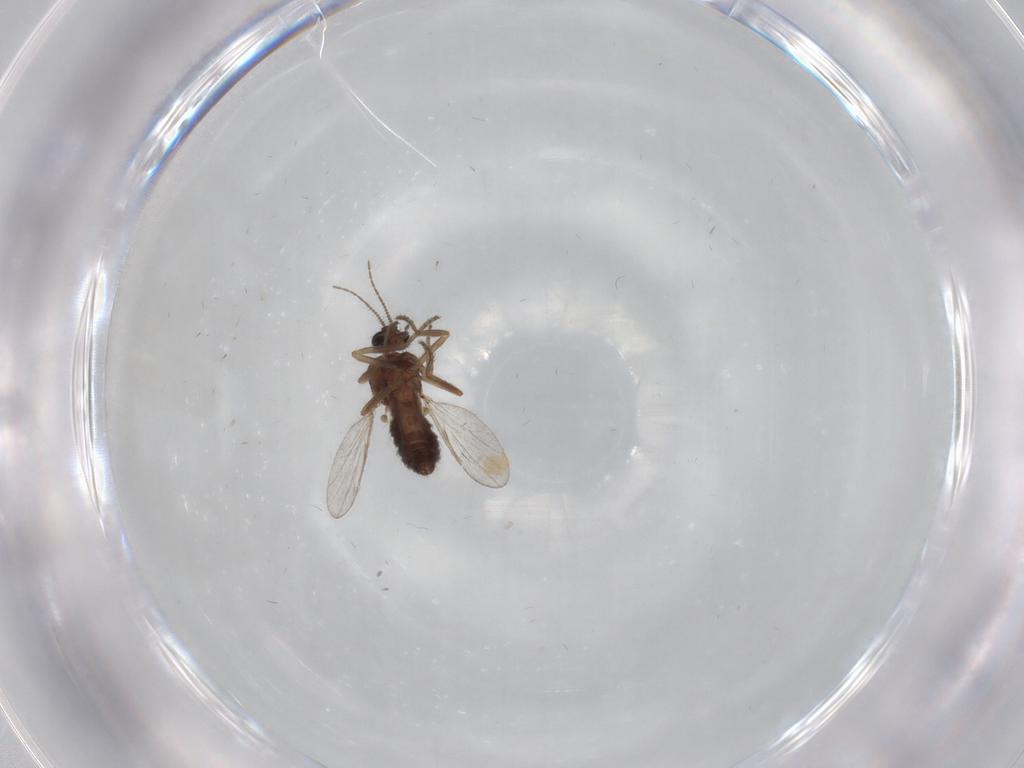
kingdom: Animalia
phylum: Arthropoda
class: Insecta
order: Diptera
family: Ceratopogonidae
